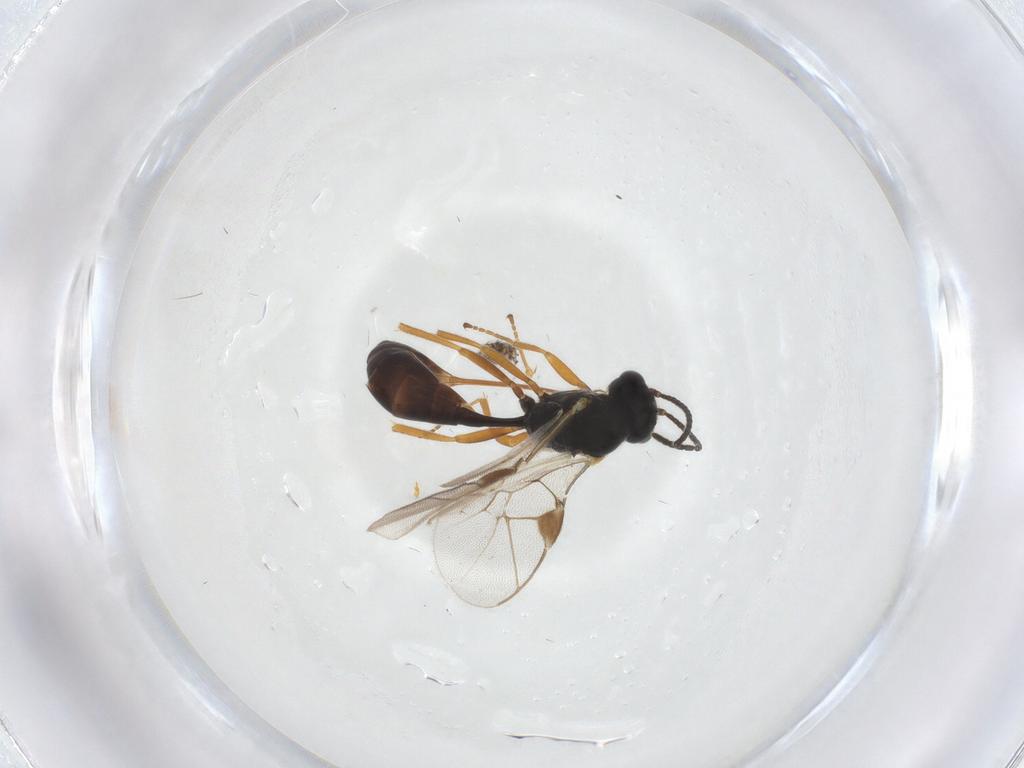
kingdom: Animalia
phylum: Arthropoda
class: Insecta
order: Hymenoptera
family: Ichneumonidae
